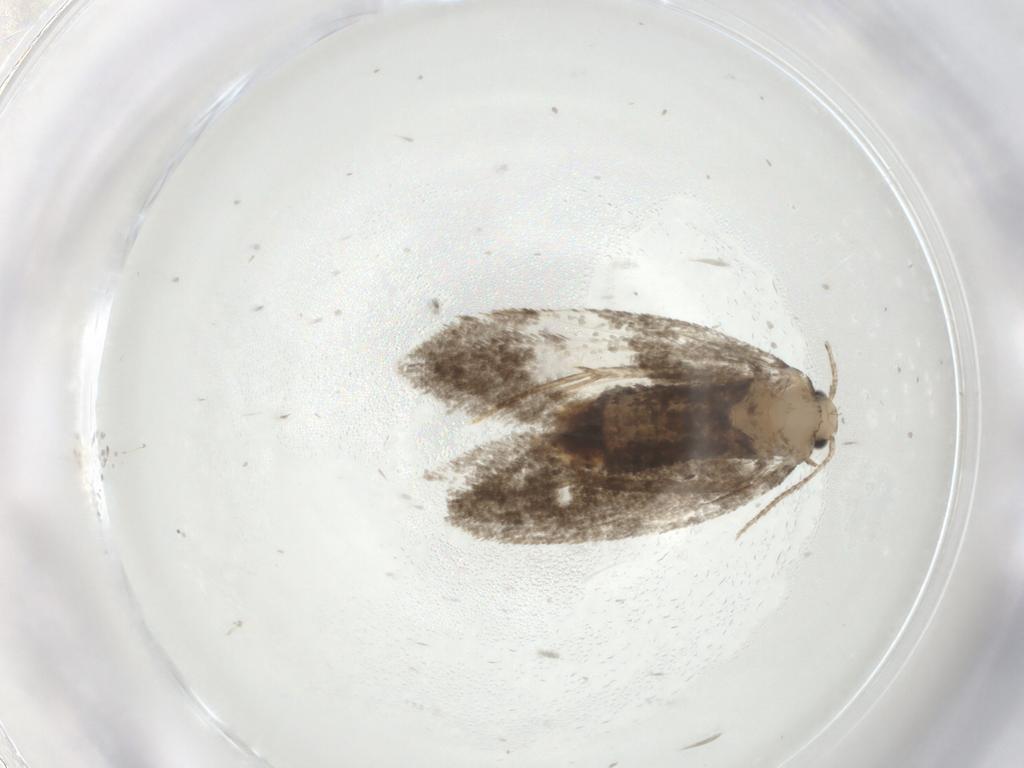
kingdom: Animalia
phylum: Arthropoda
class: Insecta
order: Lepidoptera
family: Psychidae
